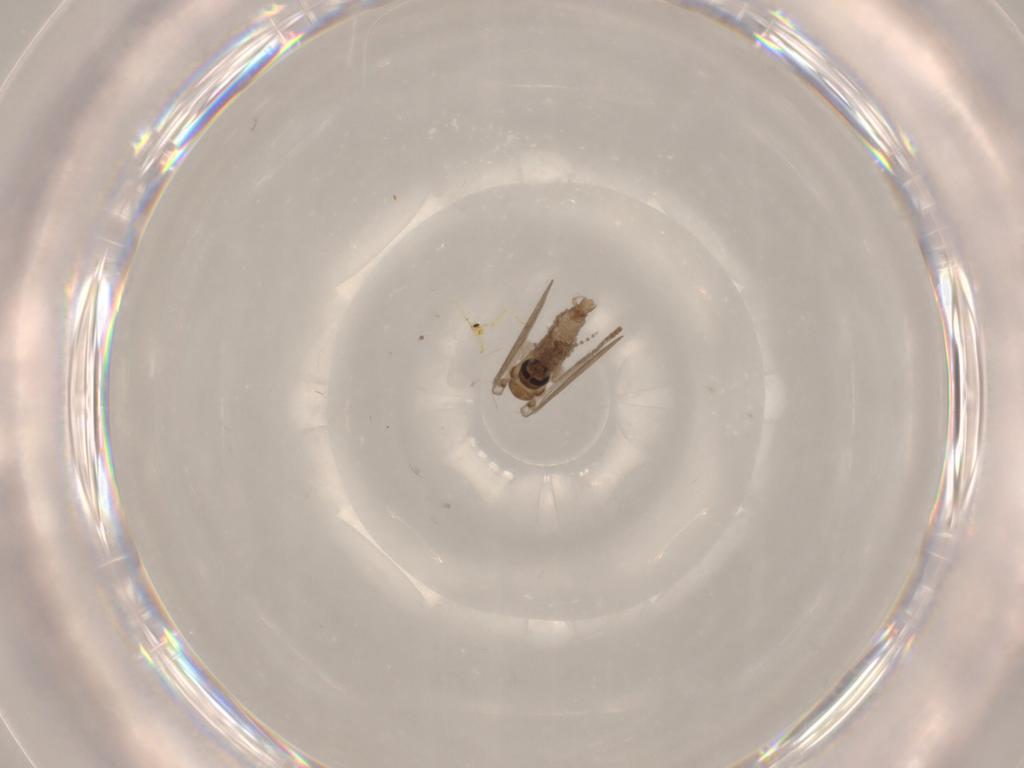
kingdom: Animalia
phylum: Arthropoda
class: Insecta
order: Diptera
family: Psychodidae
